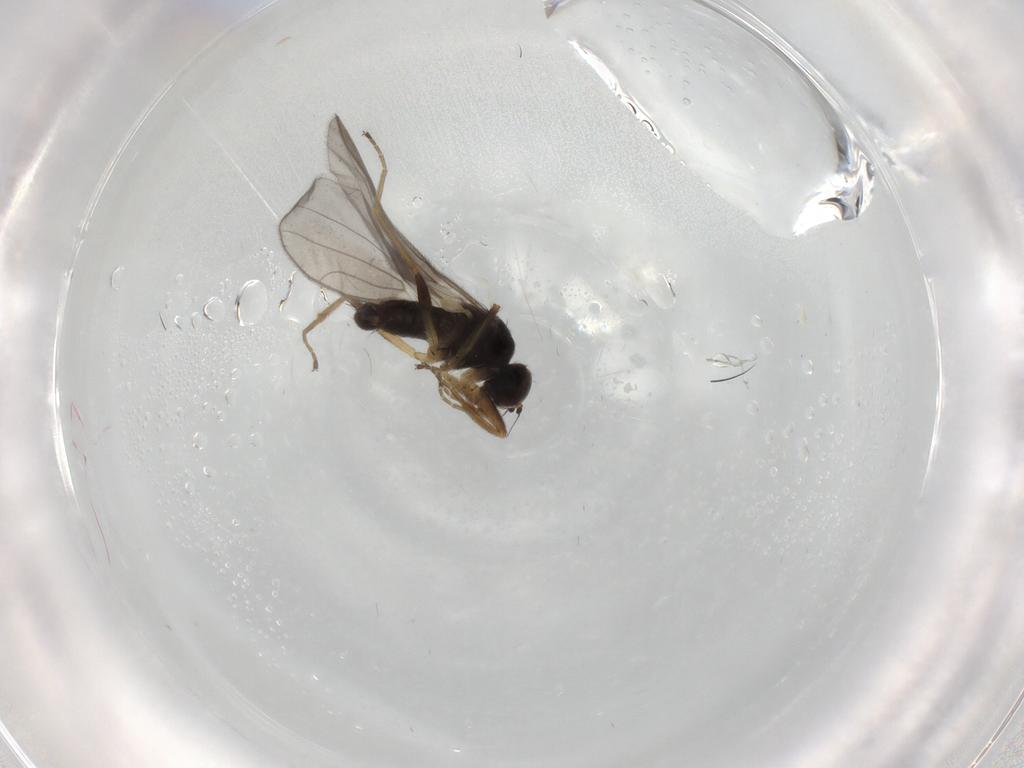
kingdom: Animalia
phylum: Arthropoda
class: Insecta
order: Diptera
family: Hybotidae
